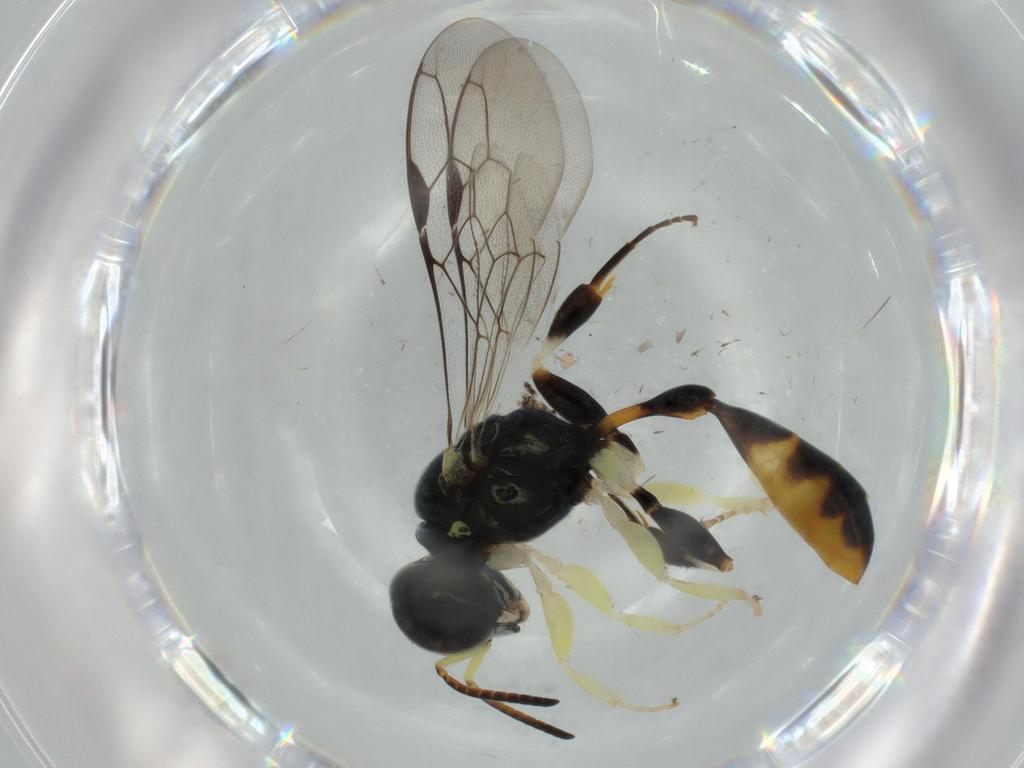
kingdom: Animalia
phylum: Arthropoda
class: Insecta
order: Hymenoptera
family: Crabronidae
